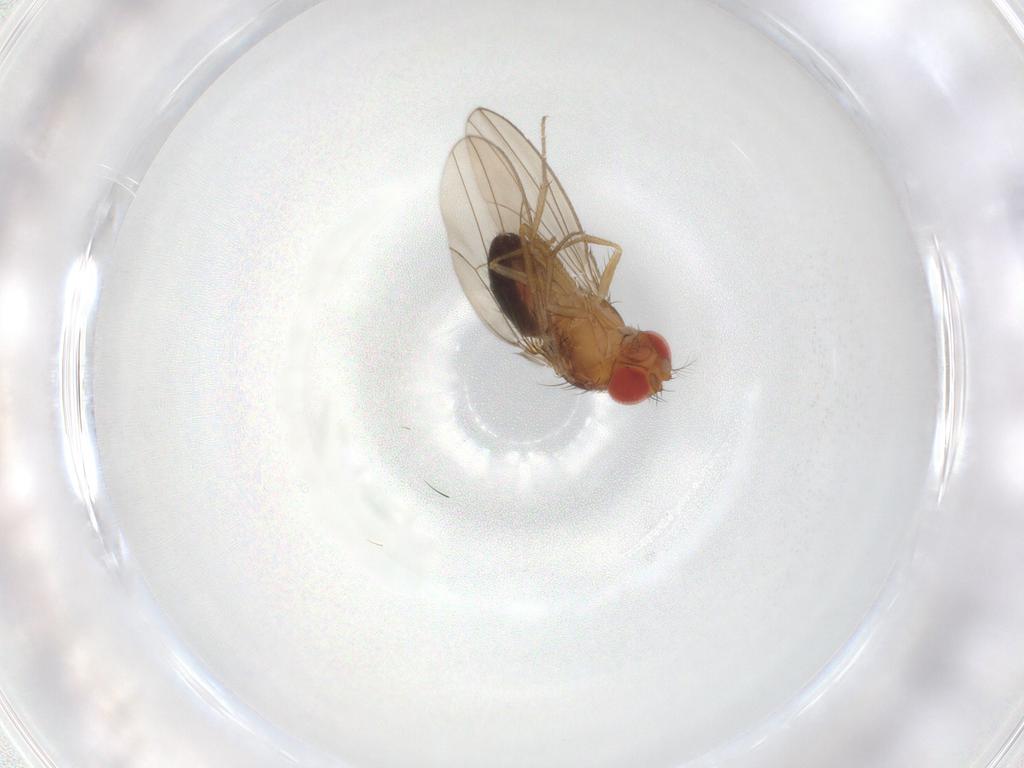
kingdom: Animalia
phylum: Arthropoda
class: Insecta
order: Diptera
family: Drosophilidae
